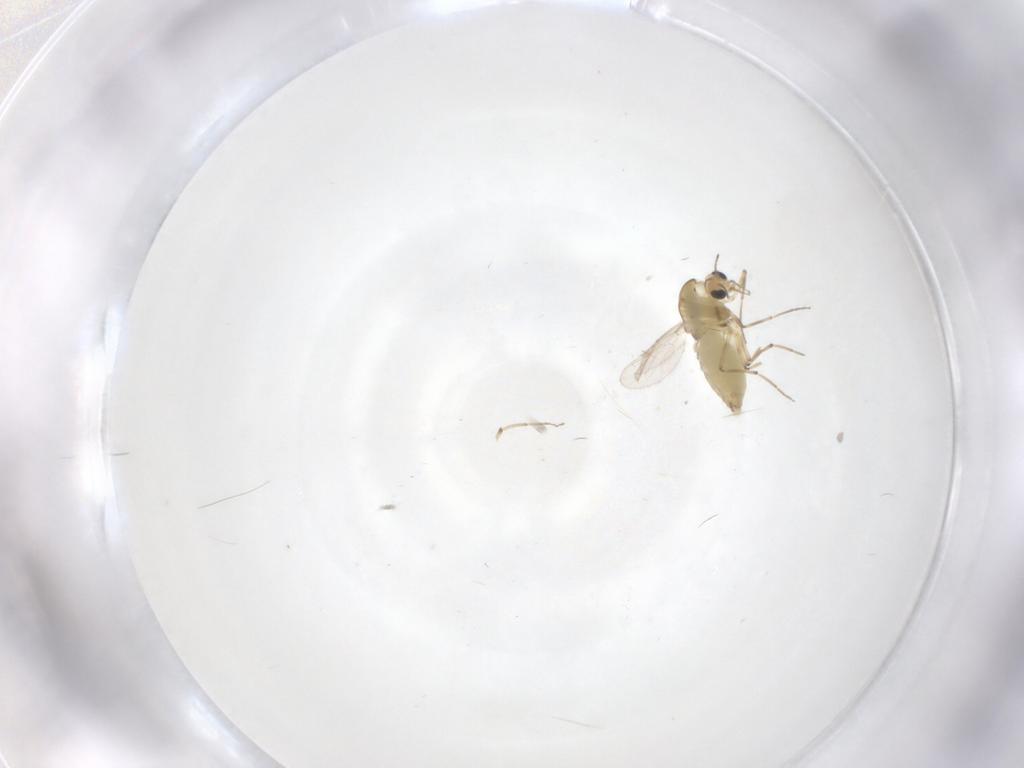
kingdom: Animalia
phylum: Arthropoda
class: Insecta
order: Diptera
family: Chironomidae
